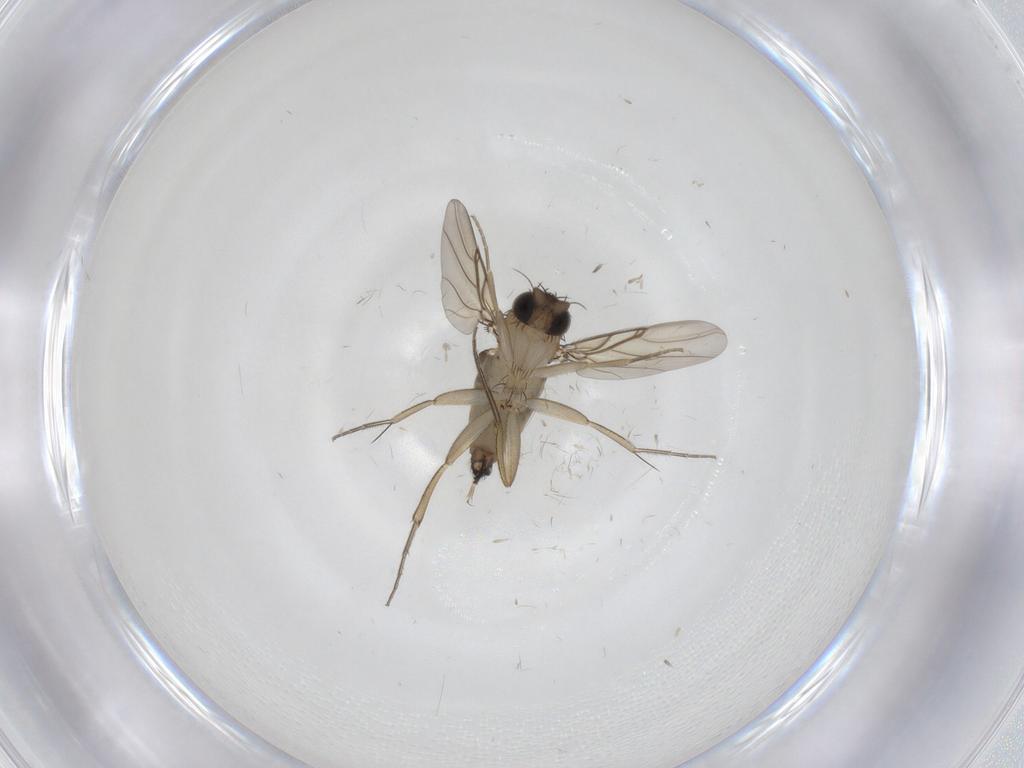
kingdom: Animalia
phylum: Arthropoda
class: Insecta
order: Diptera
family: Phoridae
